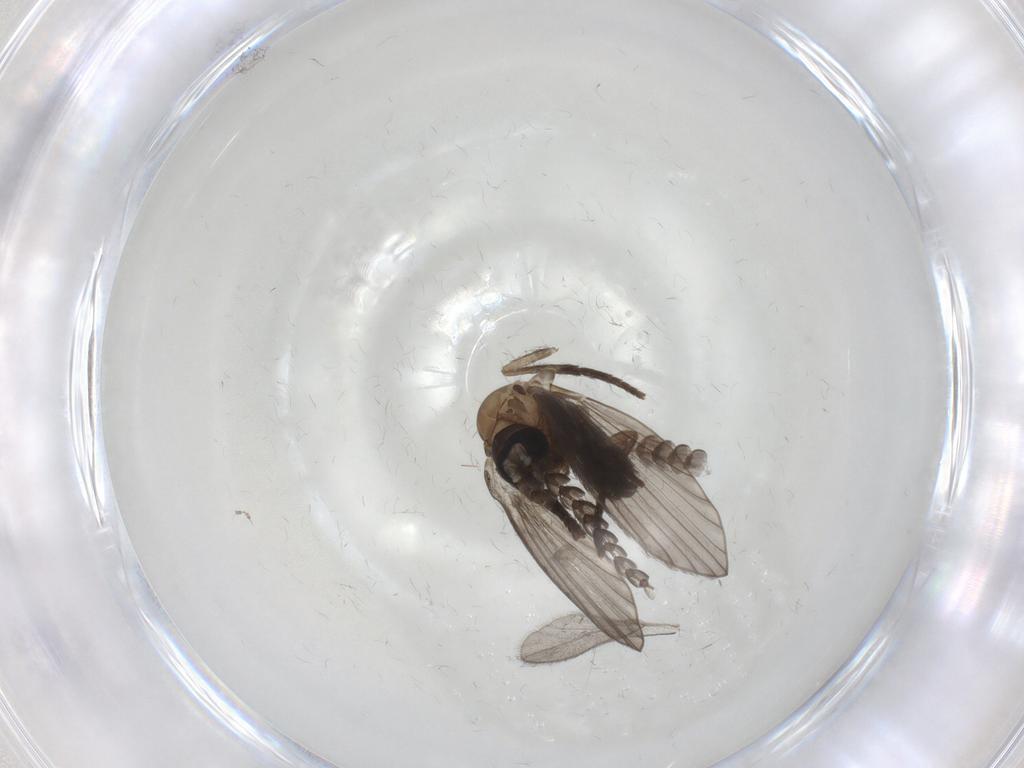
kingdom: Animalia
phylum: Arthropoda
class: Insecta
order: Diptera
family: Psychodidae
